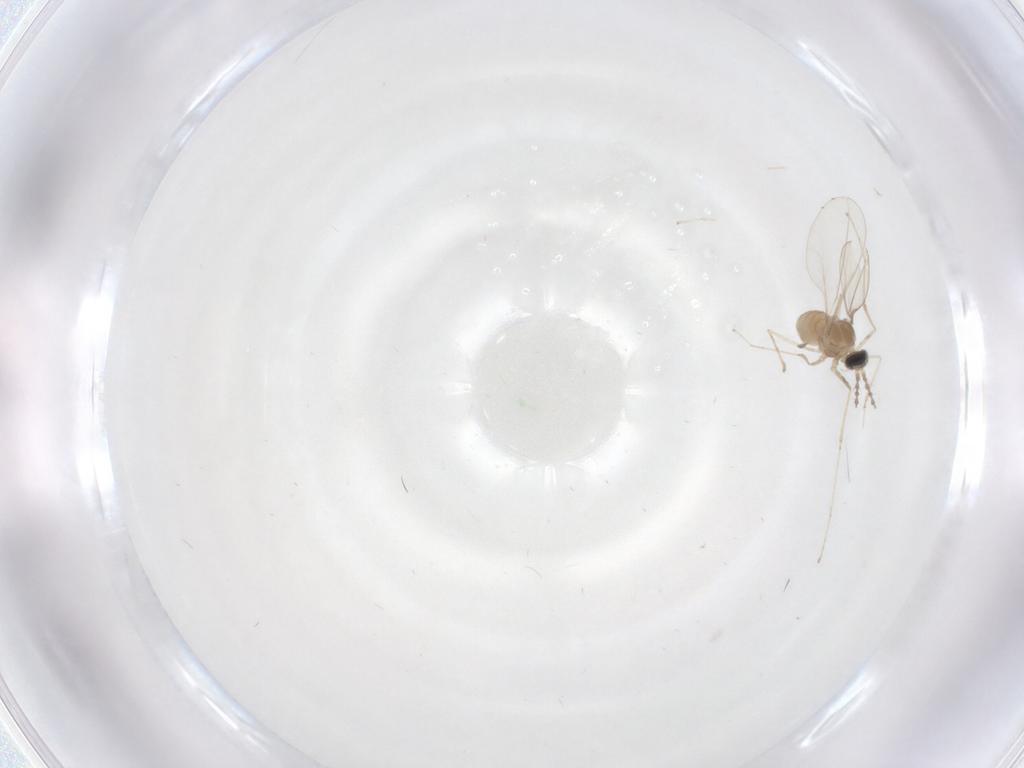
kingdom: Animalia
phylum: Arthropoda
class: Insecta
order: Diptera
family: Cecidomyiidae
